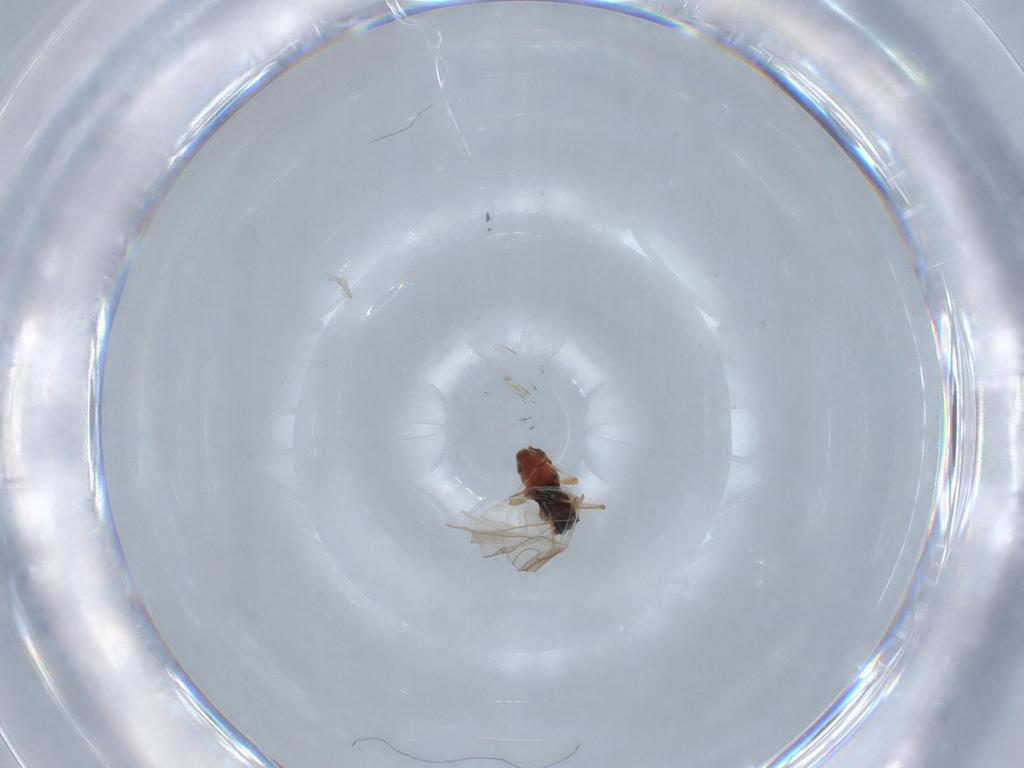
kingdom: Animalia
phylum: Arthropoda
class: Insecta
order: Hemiptera
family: Aphididae
